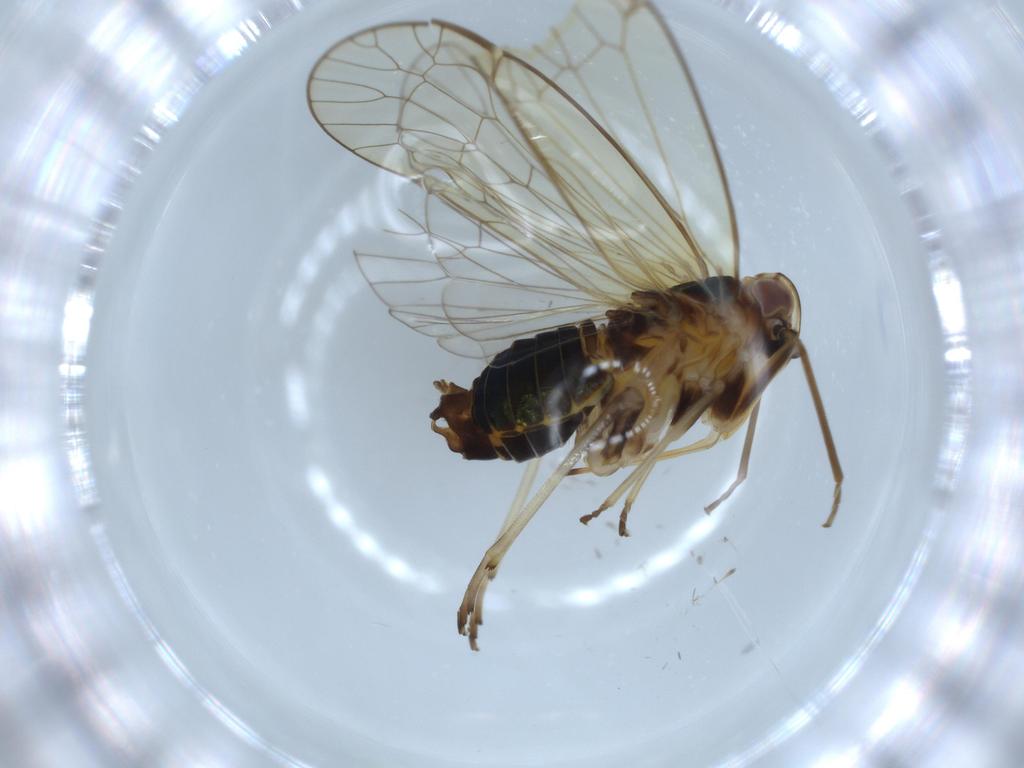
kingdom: Animalia
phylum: Arthropoda
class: Insecta
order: Hemiptera
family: Kinnaridae
